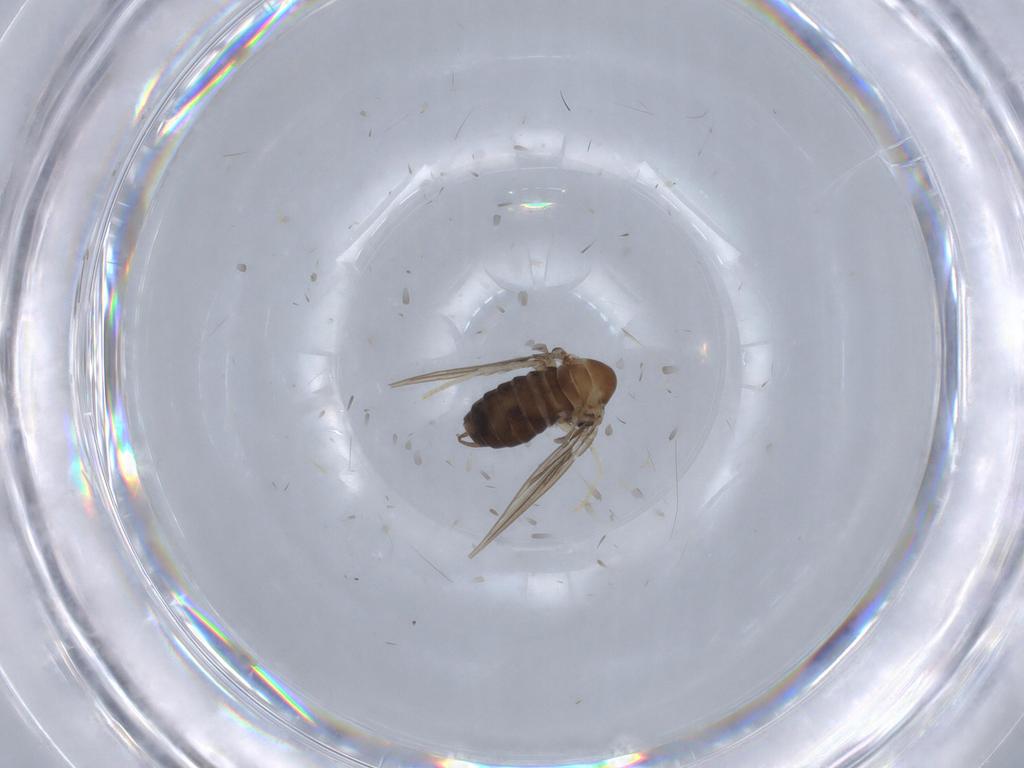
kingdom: Animalia
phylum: Arthropoda
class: Insecta
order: Diptera
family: Psychodidae
